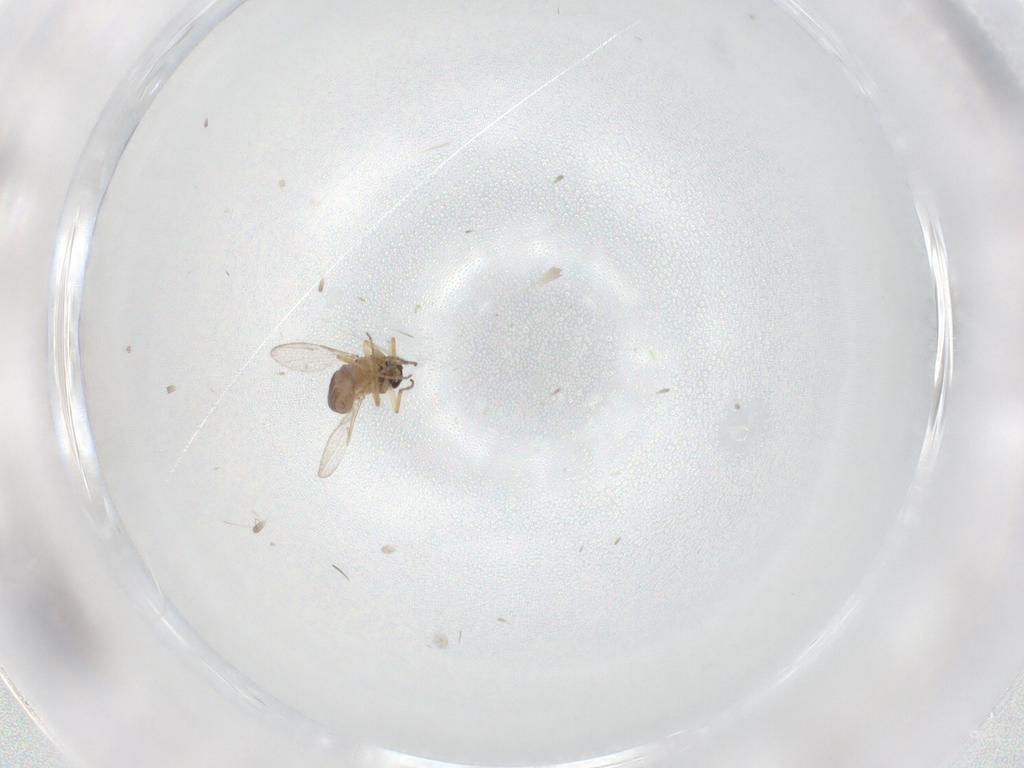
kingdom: Animalia
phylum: Arthropoda
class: Insecta
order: Diptera
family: Ceratopogonidae
